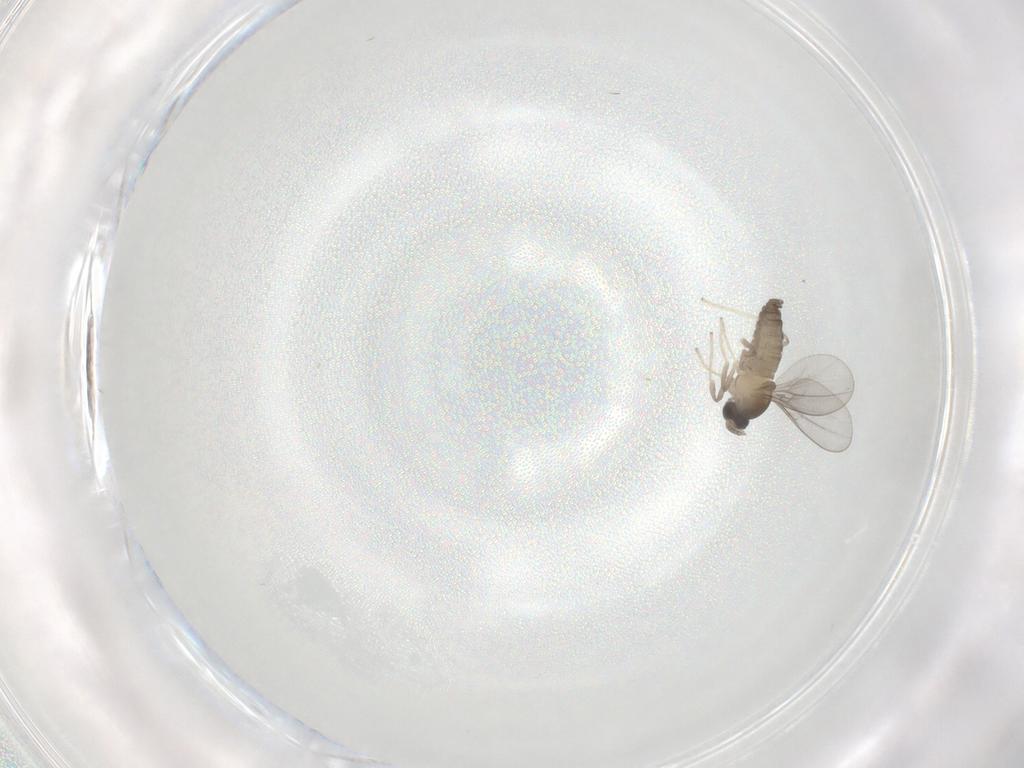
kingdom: Animalia
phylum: Arthropoda
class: Insecta
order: Diptera
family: Cecidomyiidae
